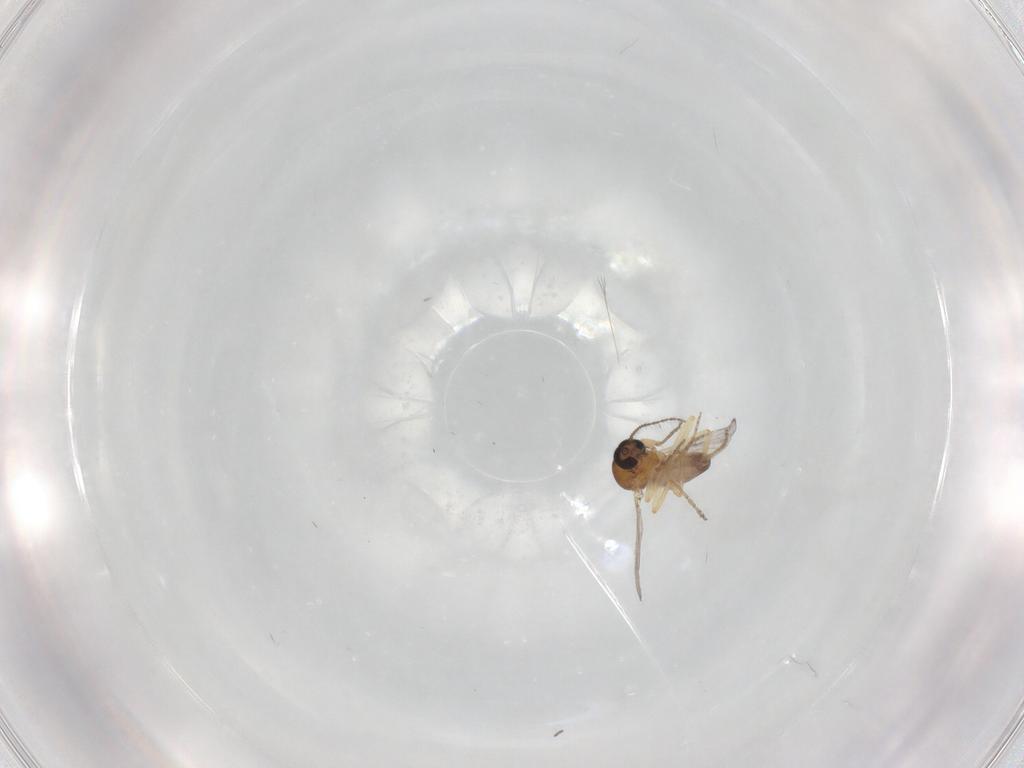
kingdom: Animalia
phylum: Arthropoda
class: Insecta
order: Diptera
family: Ceratopogonidae
